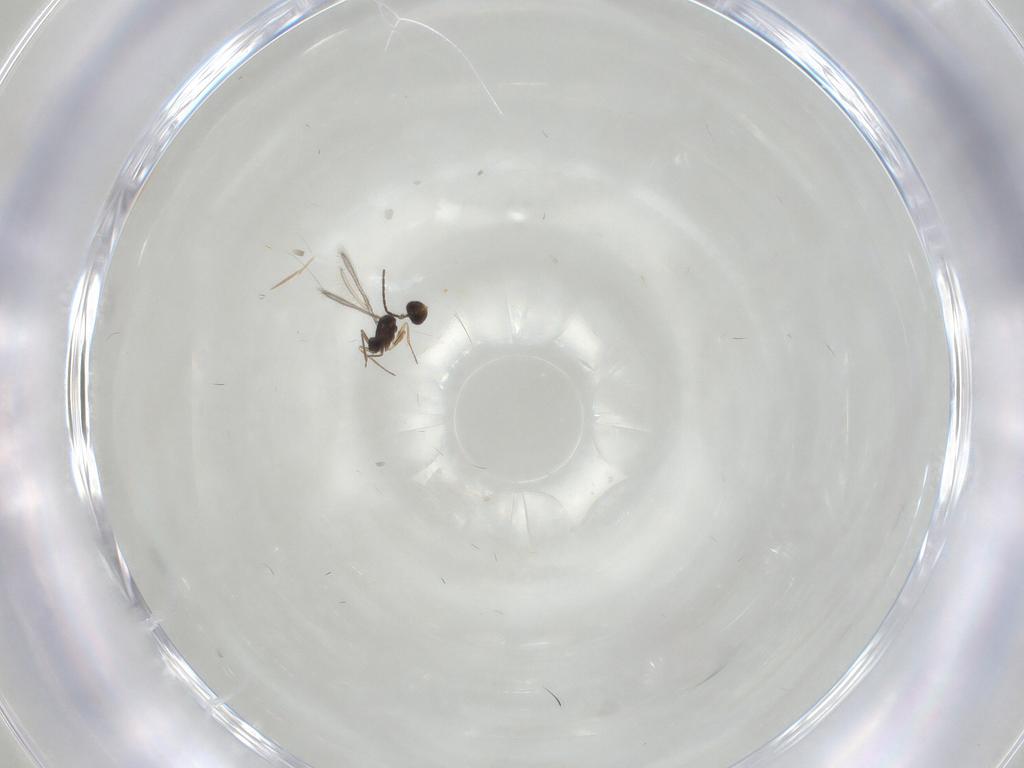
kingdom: Animalia
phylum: Arthropoda
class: Insecta
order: Hymenoptera
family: Mymaridae
